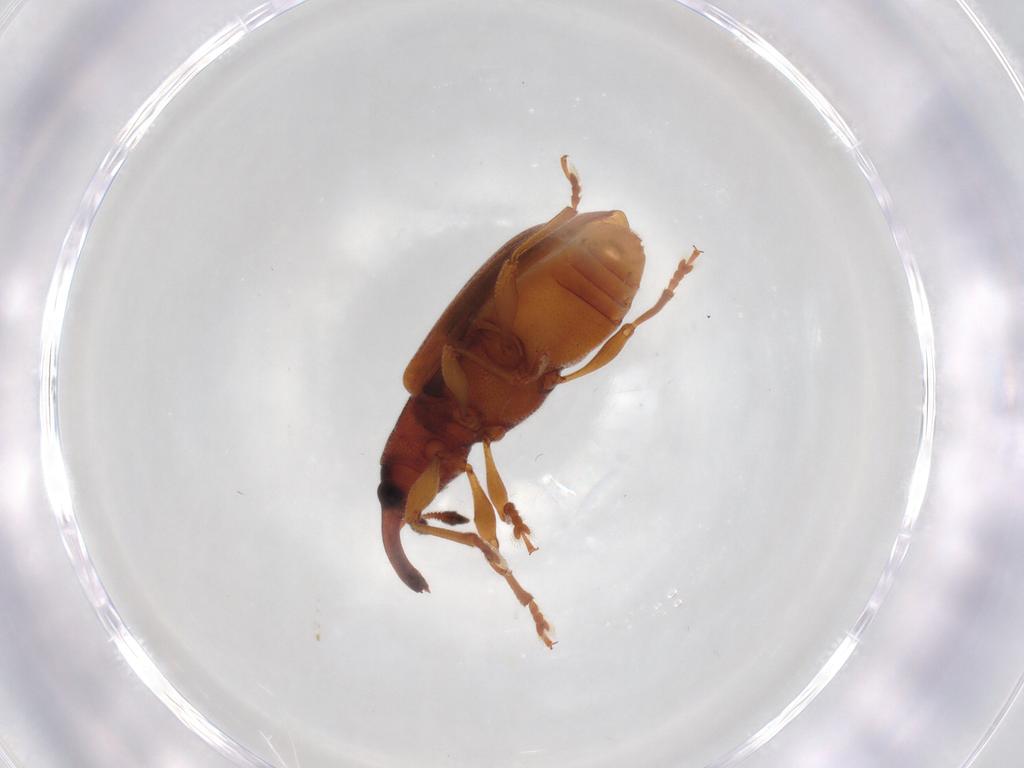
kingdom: Animalia
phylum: Arthropoda
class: Insecta
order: Coleoptera
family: Curculionidae
